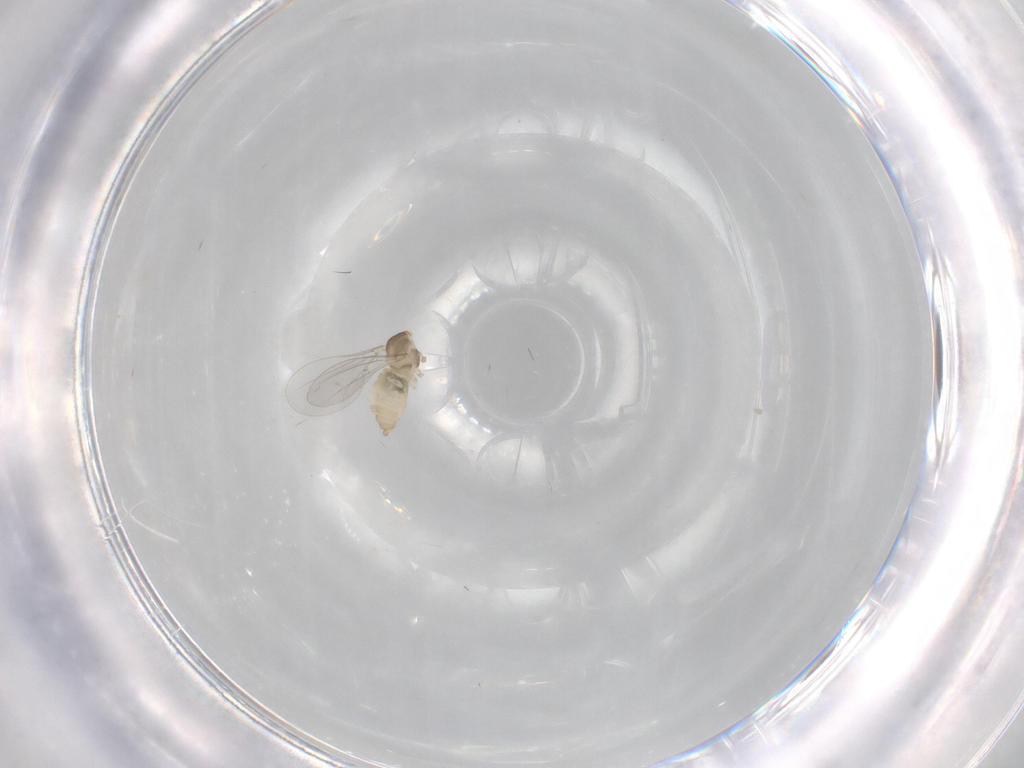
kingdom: Animalia
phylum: Arthropoda
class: Insecta
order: Diptera
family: Cecidomyiidae
